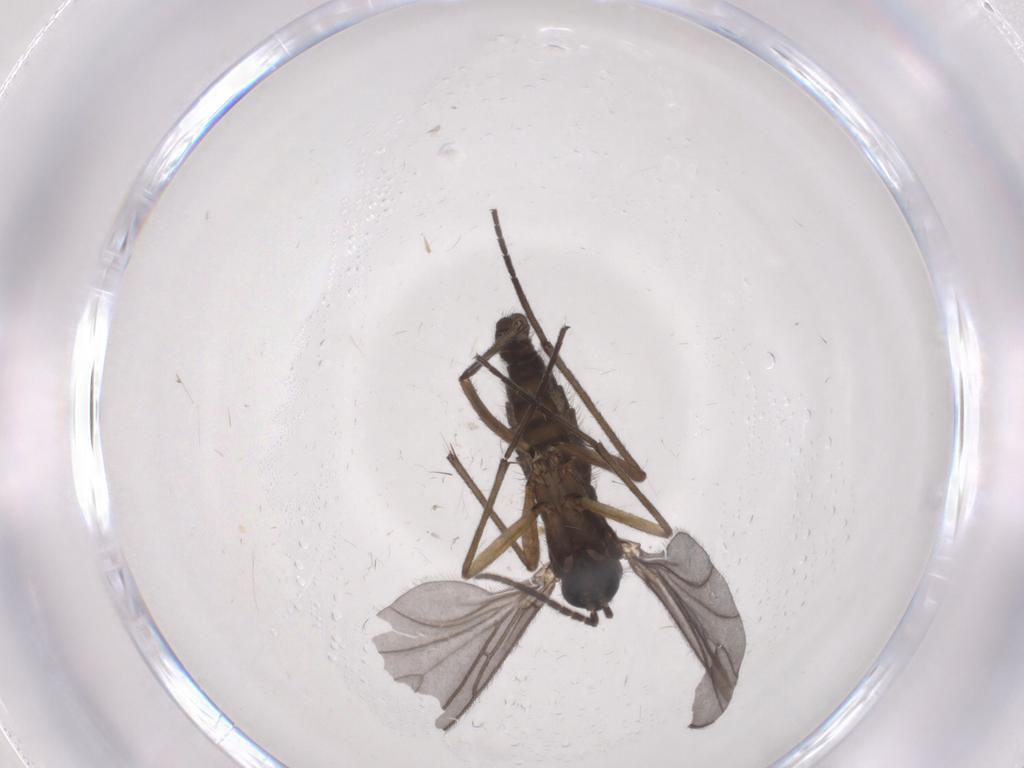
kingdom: Animalia
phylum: Arthropoda
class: Insecta
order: Diptera
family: Sciaridae
